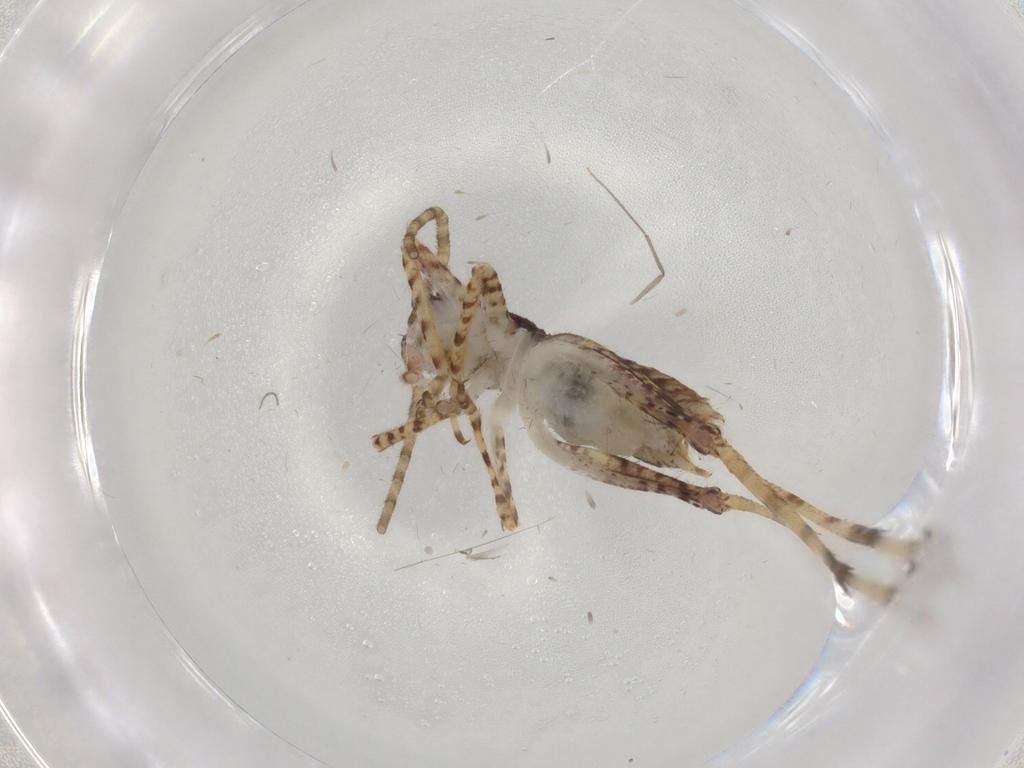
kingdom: Animalia
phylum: Arthropoda
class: Insecta
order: Orthoptera
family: Gryllidae
